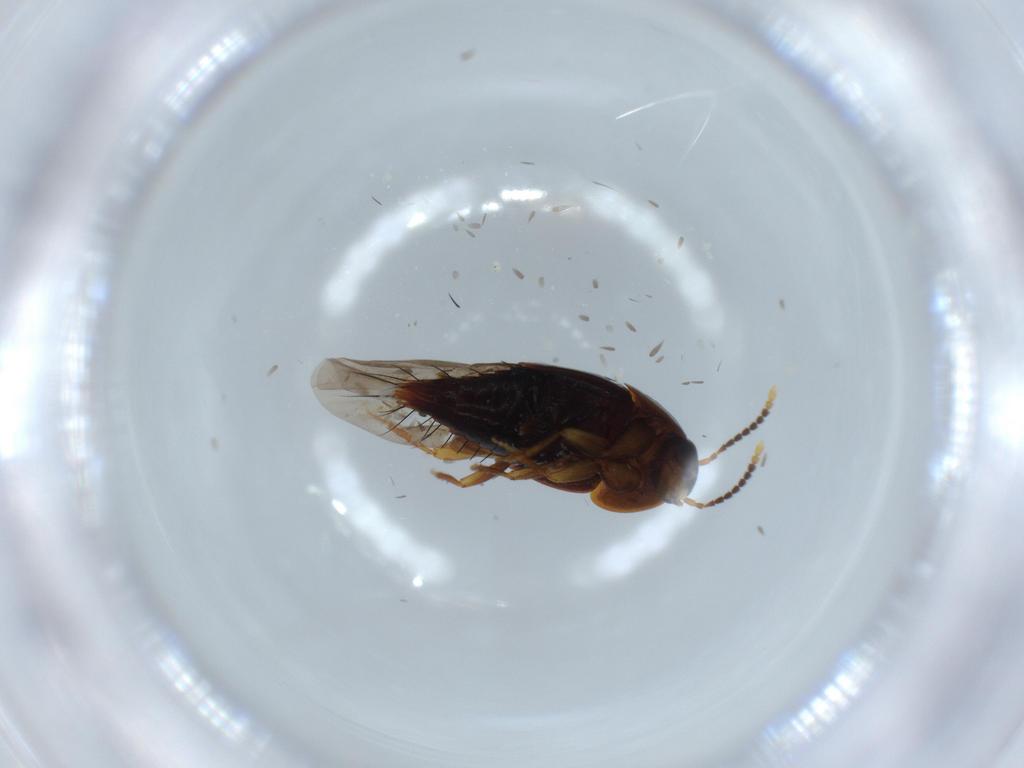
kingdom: Animalia
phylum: Arthropoda
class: Insecta
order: Coleoptera
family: Staphylinidae
